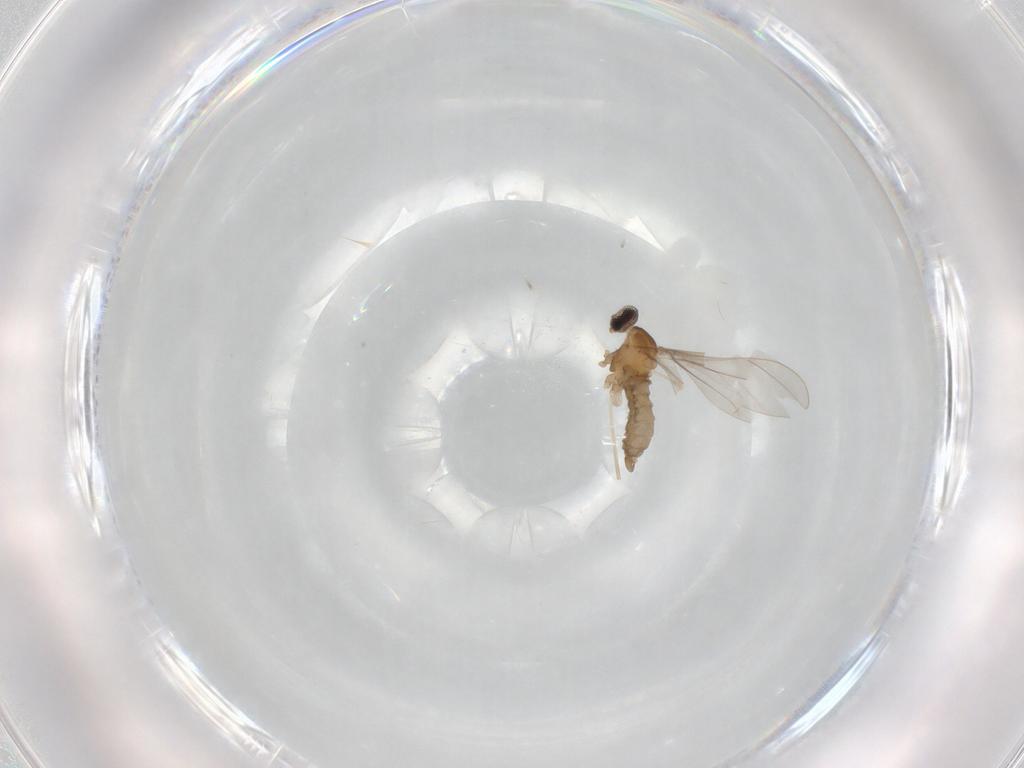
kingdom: Animalia
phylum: Arthropoda
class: Insecta
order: Diptera
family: Cecidomyiidae
